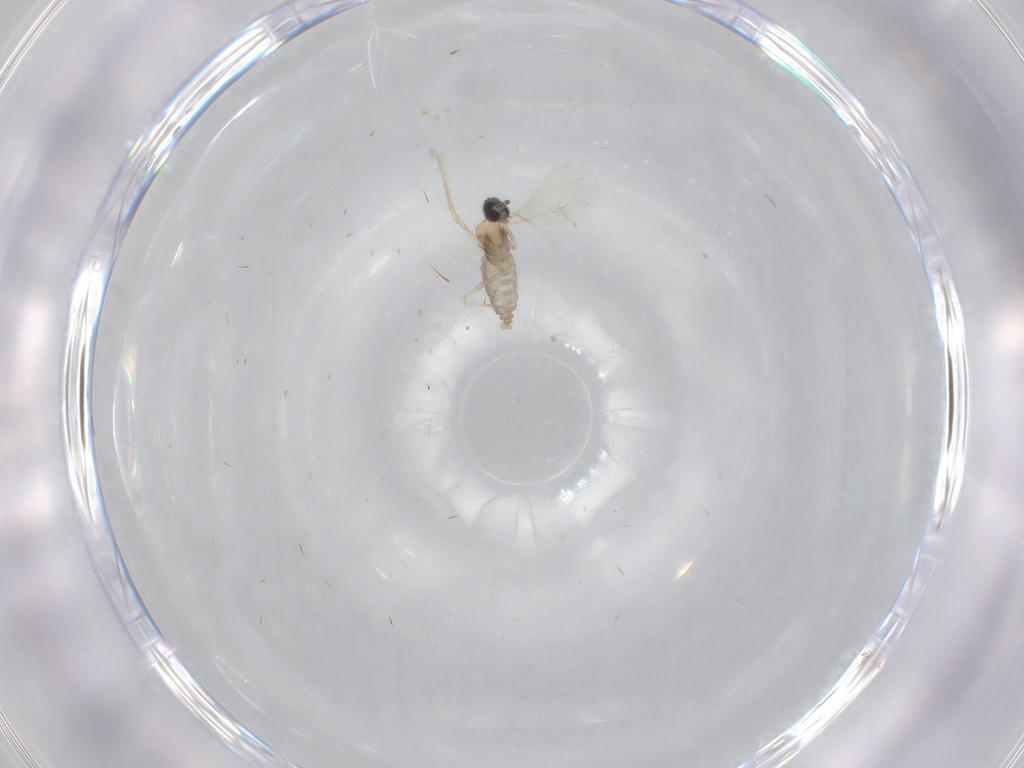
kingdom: Animalia
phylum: Arthropoda
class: Insecta
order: Diptera
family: Cecidomyiidae
